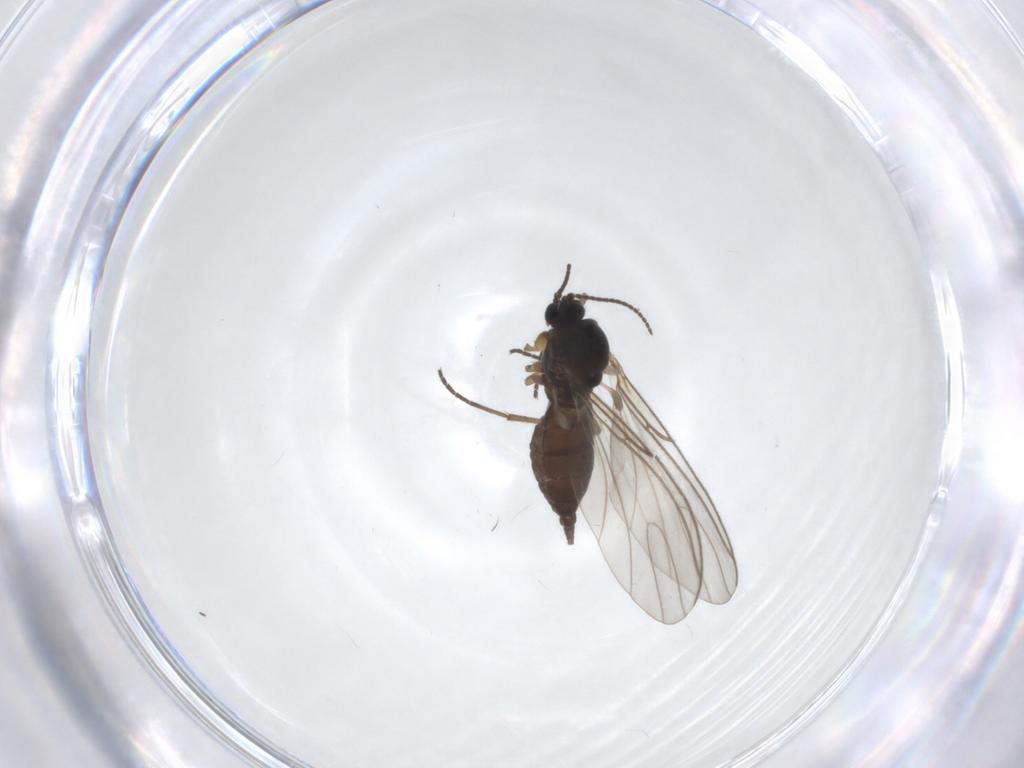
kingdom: Animalia
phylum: Arthropoda
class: Insecta
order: Diptera
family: Sciaridae
